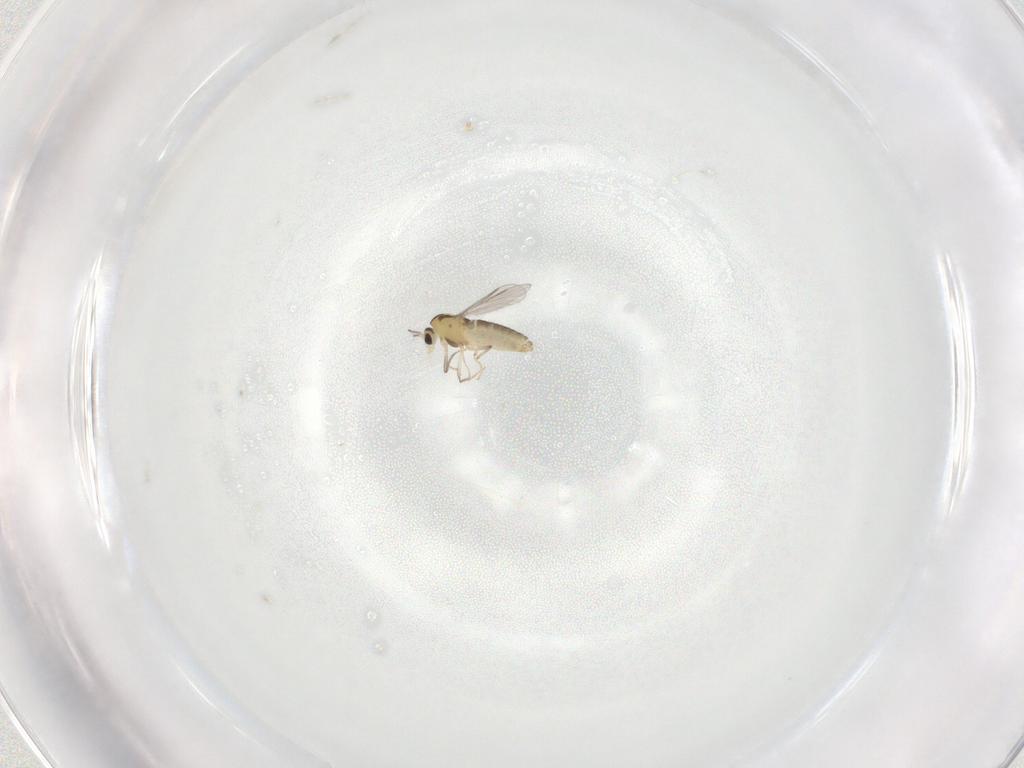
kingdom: Animalia
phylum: Arthropoda
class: Insecta
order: Diptera
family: Chironomidae
